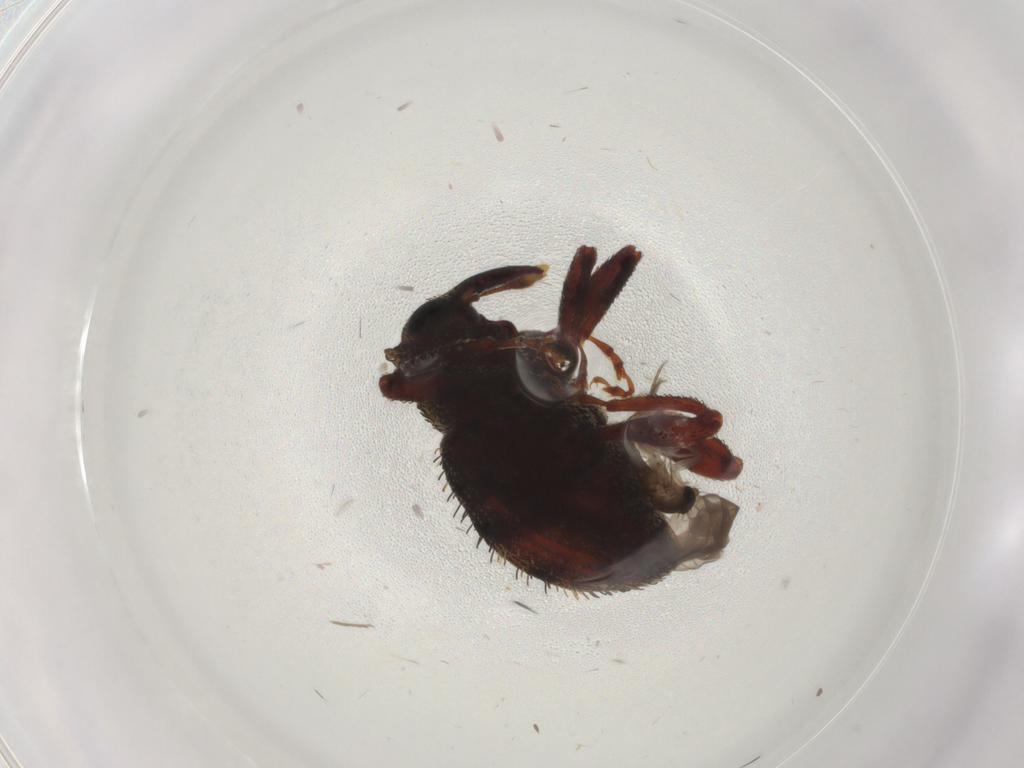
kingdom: Animalia
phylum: Arthropoda
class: Insecta
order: Coleoptera
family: Curculionidae
